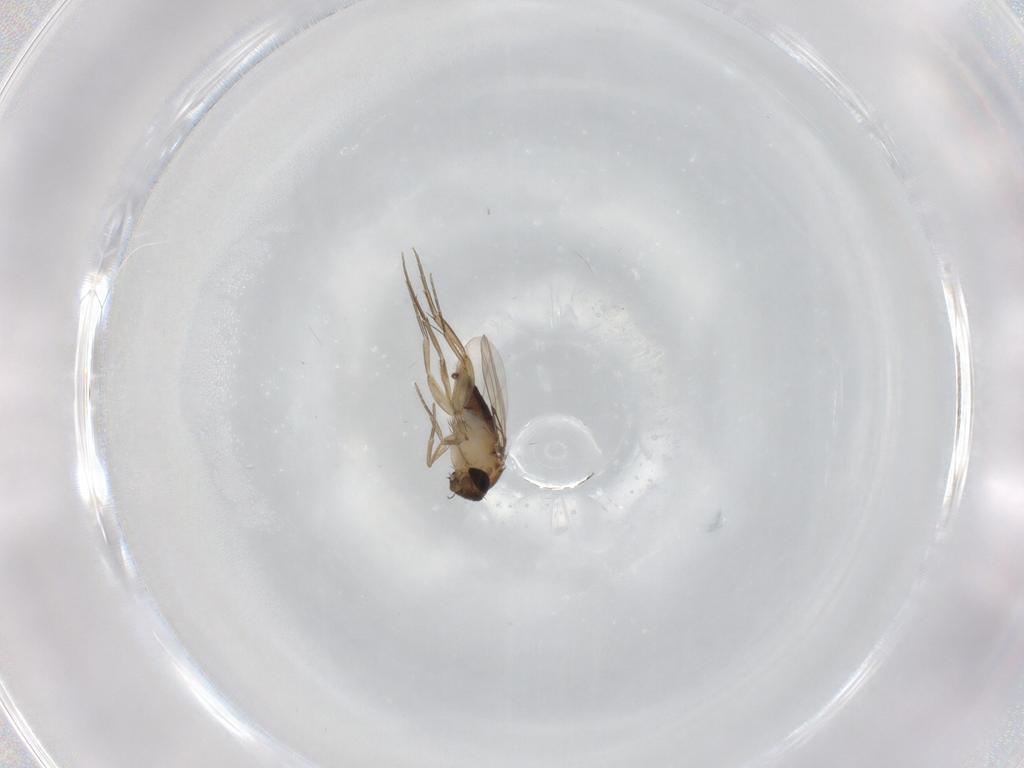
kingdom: Animalia
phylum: Arthropoda
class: Insecta
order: Diptera
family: Phoridae
